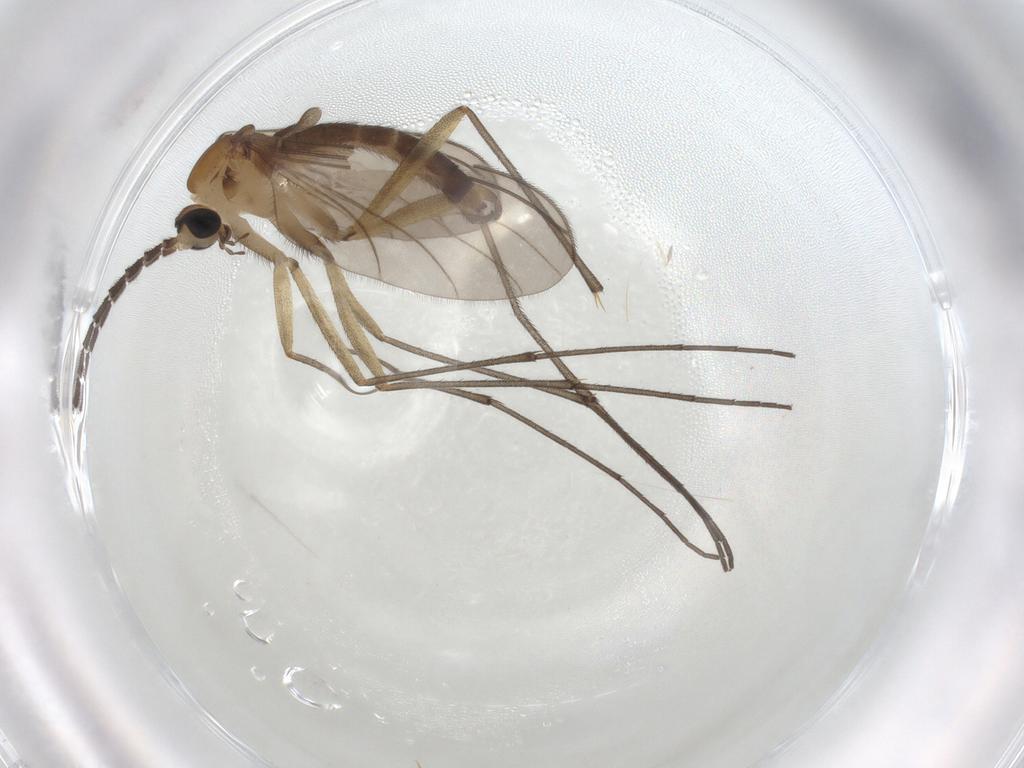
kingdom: Animalia
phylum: Arthropoda
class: Insecta
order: Diptera
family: Sciaridae
